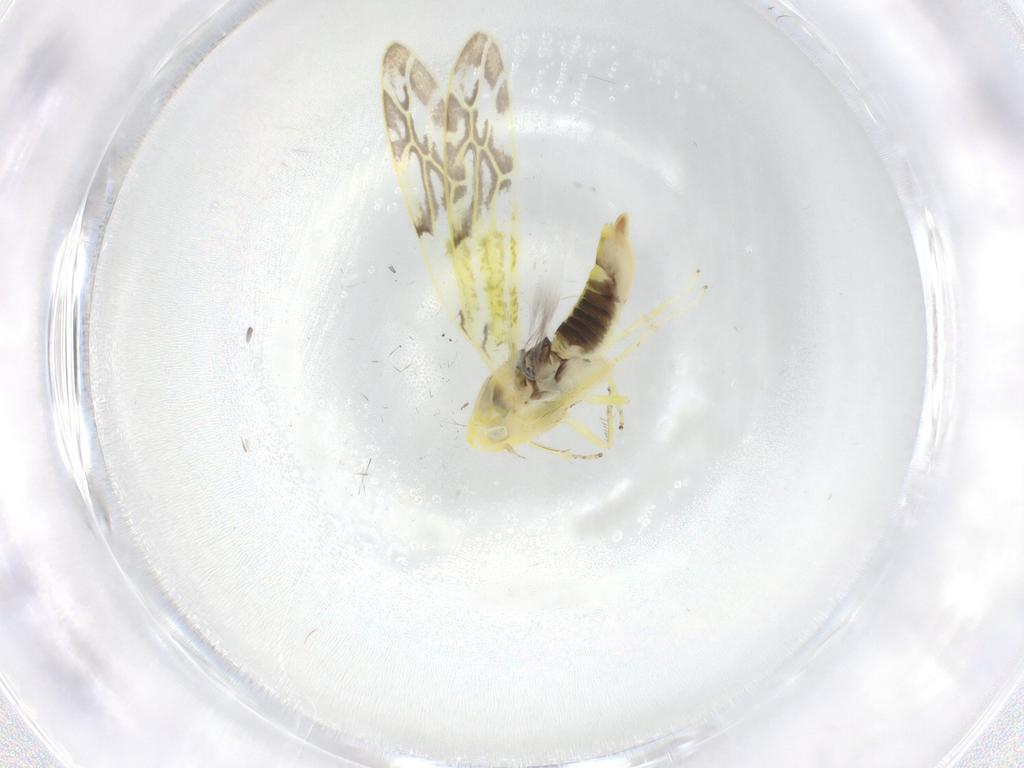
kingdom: Animalia
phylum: Arthropoda
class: Insecta
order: Hemiptera
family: Cicadellidae
